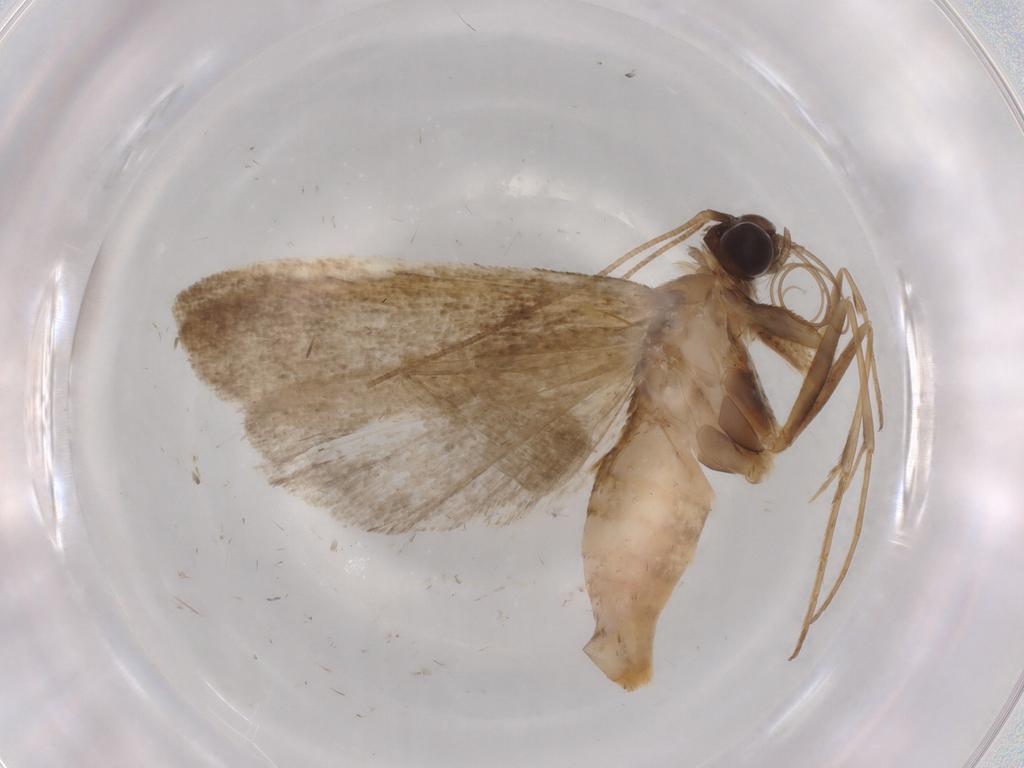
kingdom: Animalia
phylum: Arthropoda
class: Insecta
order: Lepidoptera
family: Noctuidae
